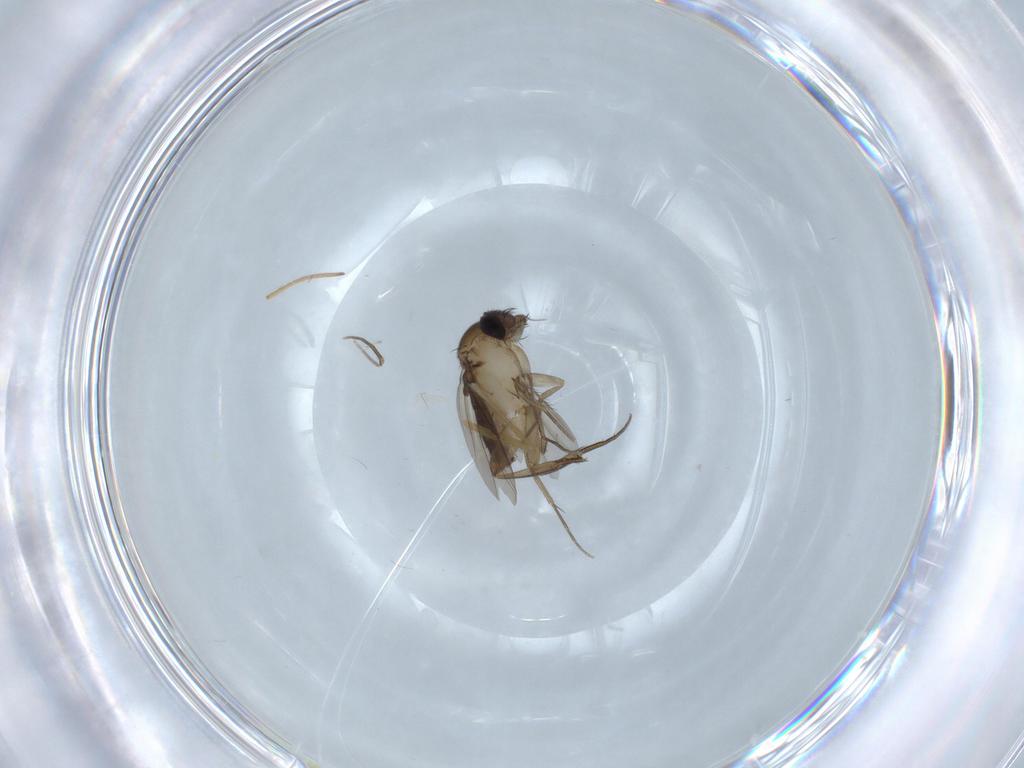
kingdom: Animalia
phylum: Arthropoda
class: Insecta
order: Diptera
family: Phoridae
